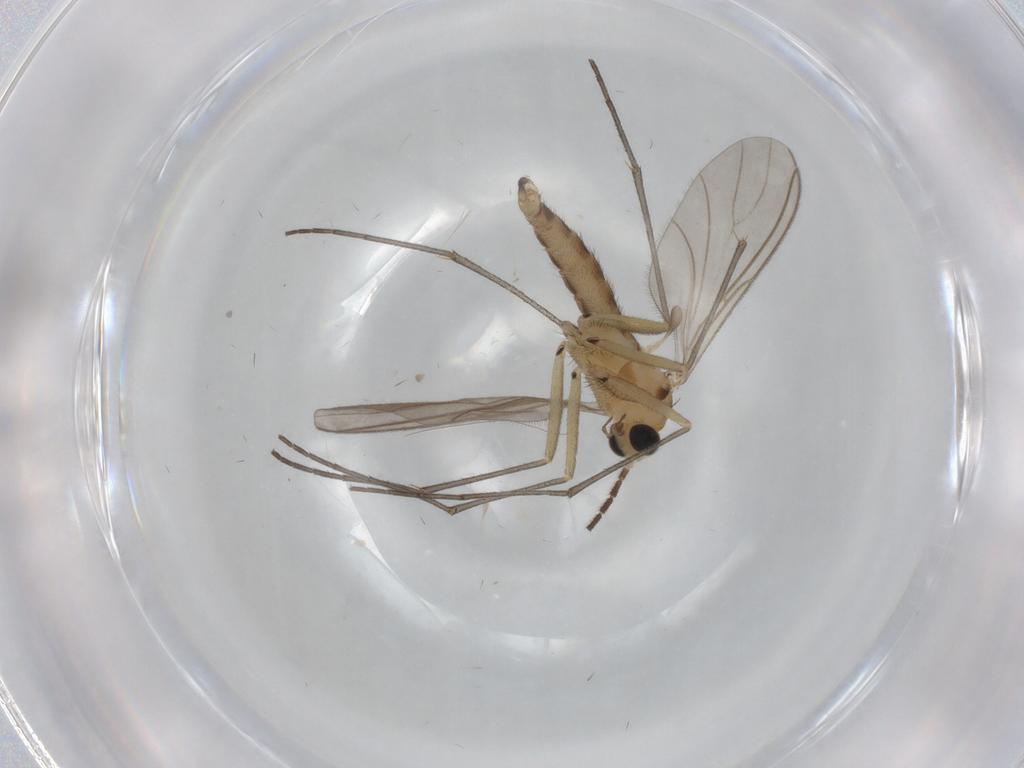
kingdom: Animalia
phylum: Arthropoda
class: Insecta
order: Diptera
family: Sciaridae
